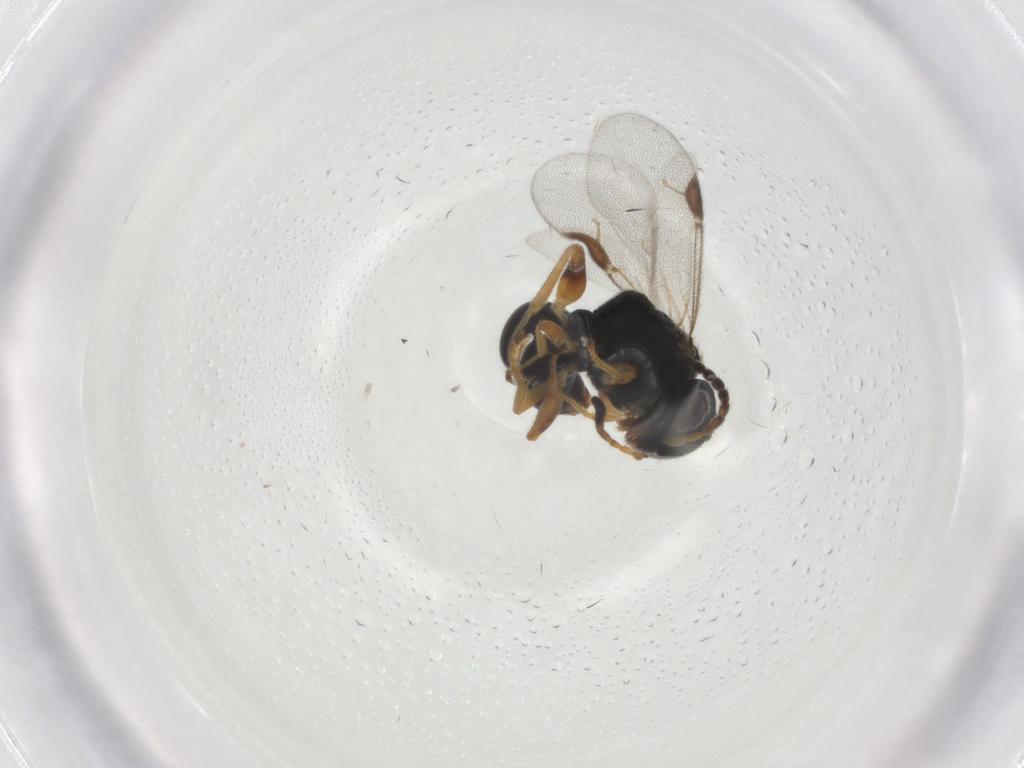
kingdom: Animalia
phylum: Arthropoda
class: Insecta
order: Hymenoptera
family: Dryinidae
